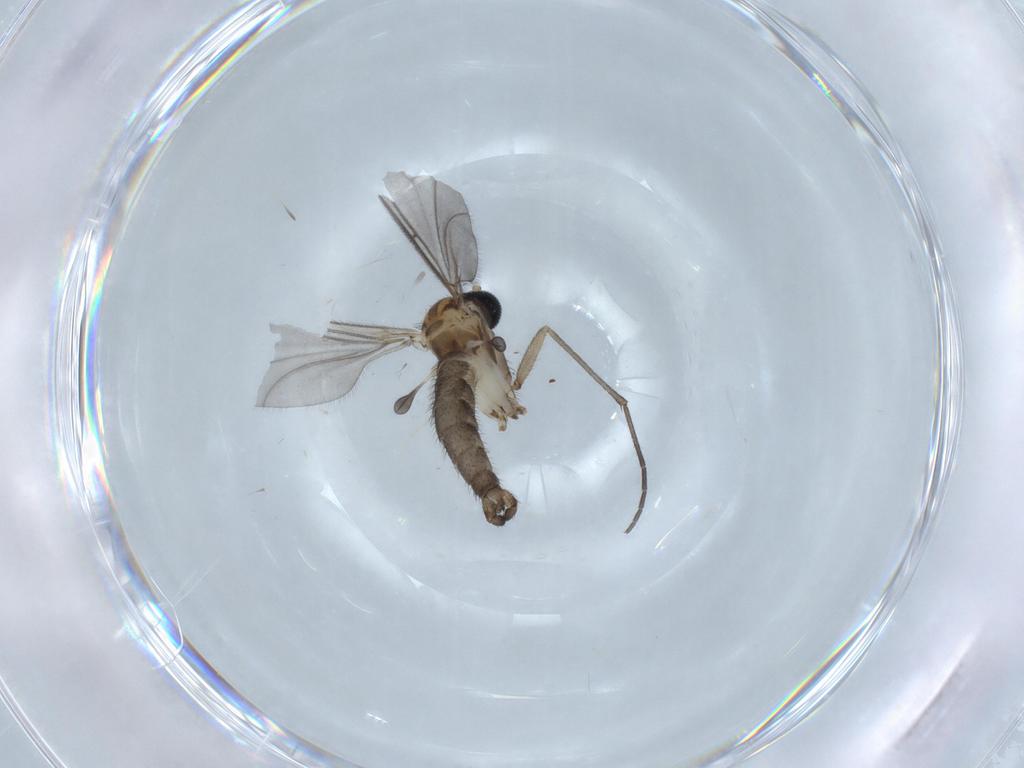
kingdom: Animalia
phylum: Arthropoda
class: Insecta
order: Diptera
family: Sciaridae
